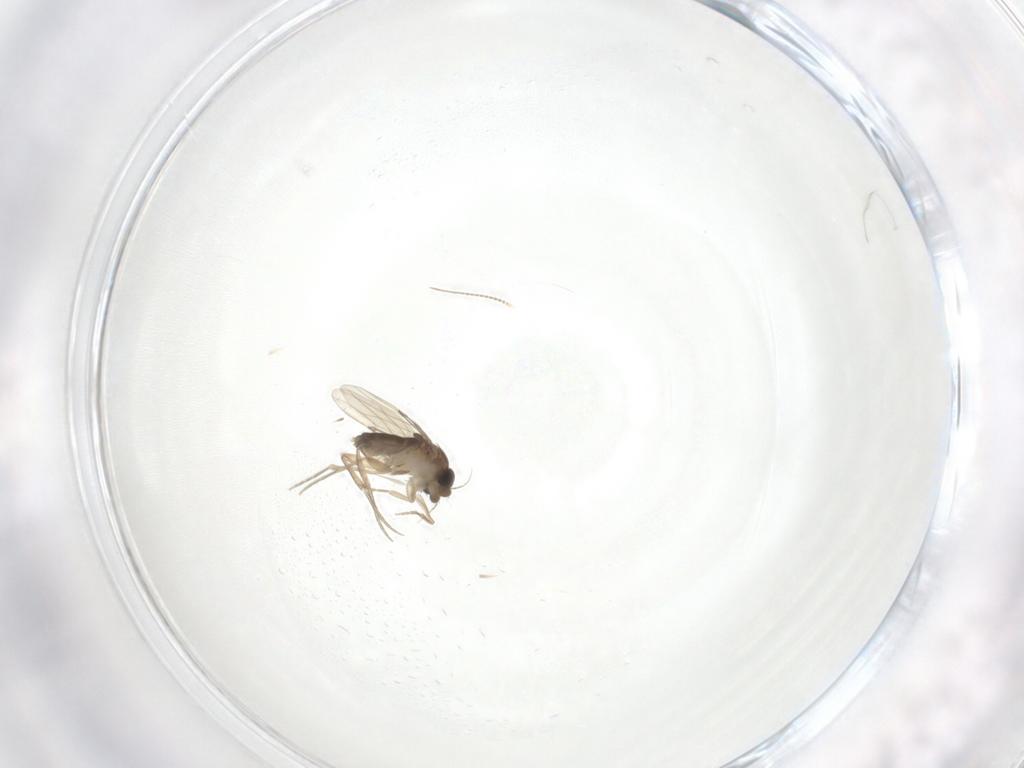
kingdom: Animalia
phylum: Arthropoda
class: Insecta
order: Diptera
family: Phoridae
